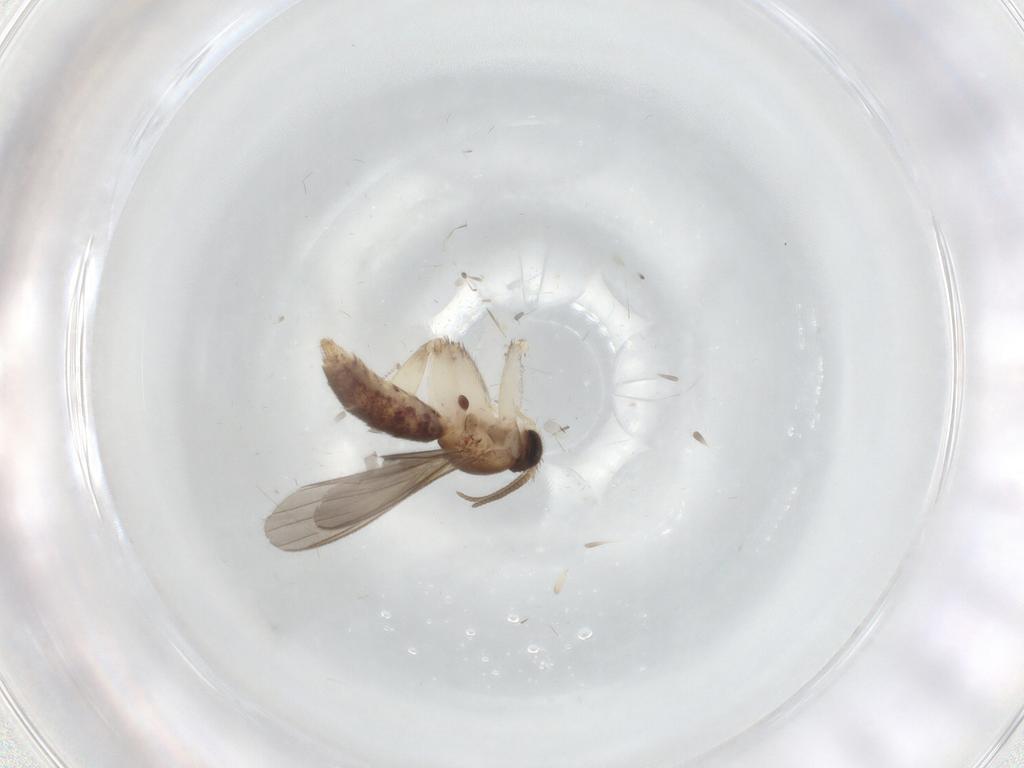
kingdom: Animalia
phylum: Arthropoda
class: Insecta
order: Diptera
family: Mycetophilidae
